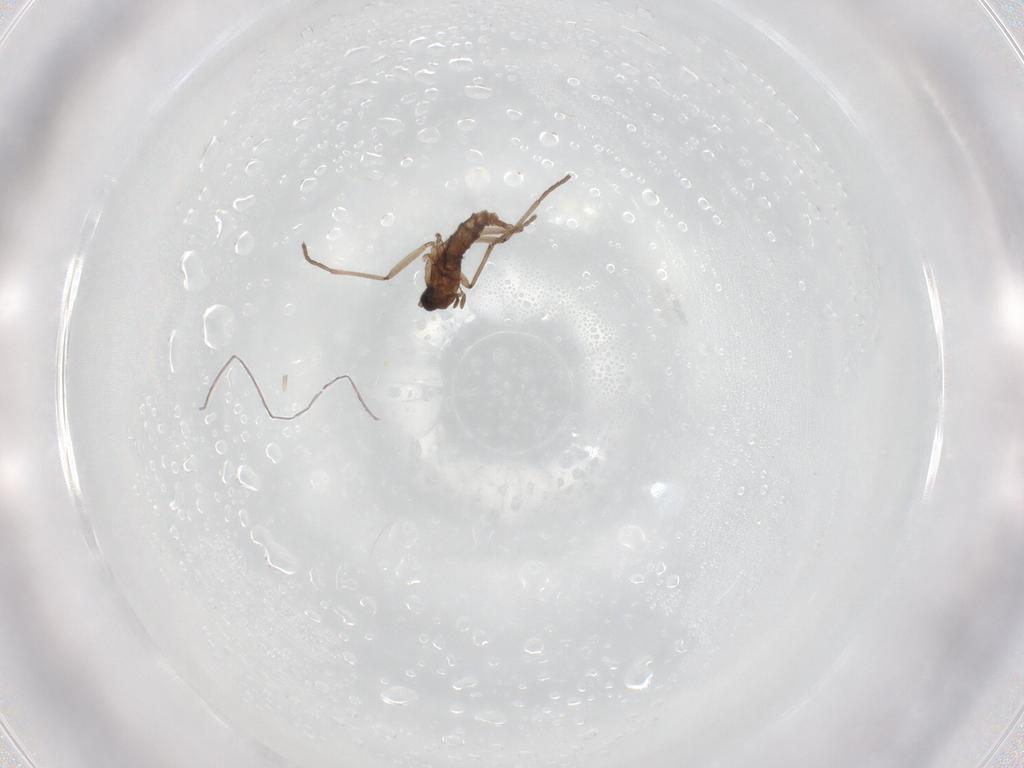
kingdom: Animalia
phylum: Arthropoda
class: Insecta
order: Diptera
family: Sciaridae
